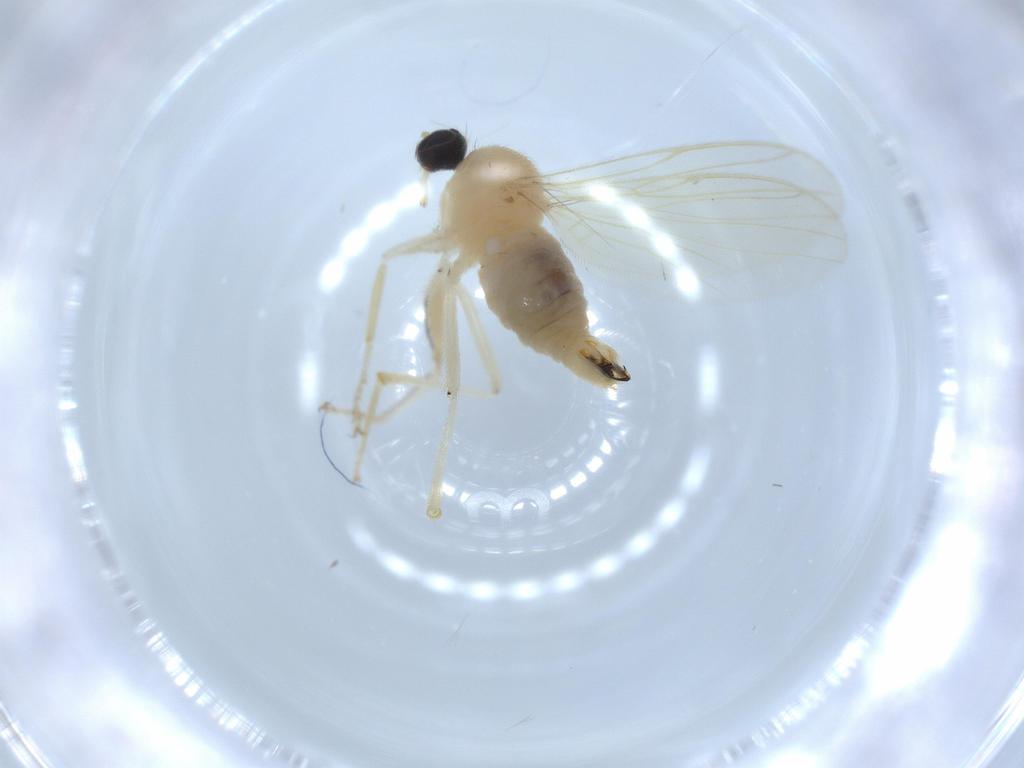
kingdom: Animalia
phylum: Arthropoda
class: Insecta
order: Diptera
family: Hybotidae
